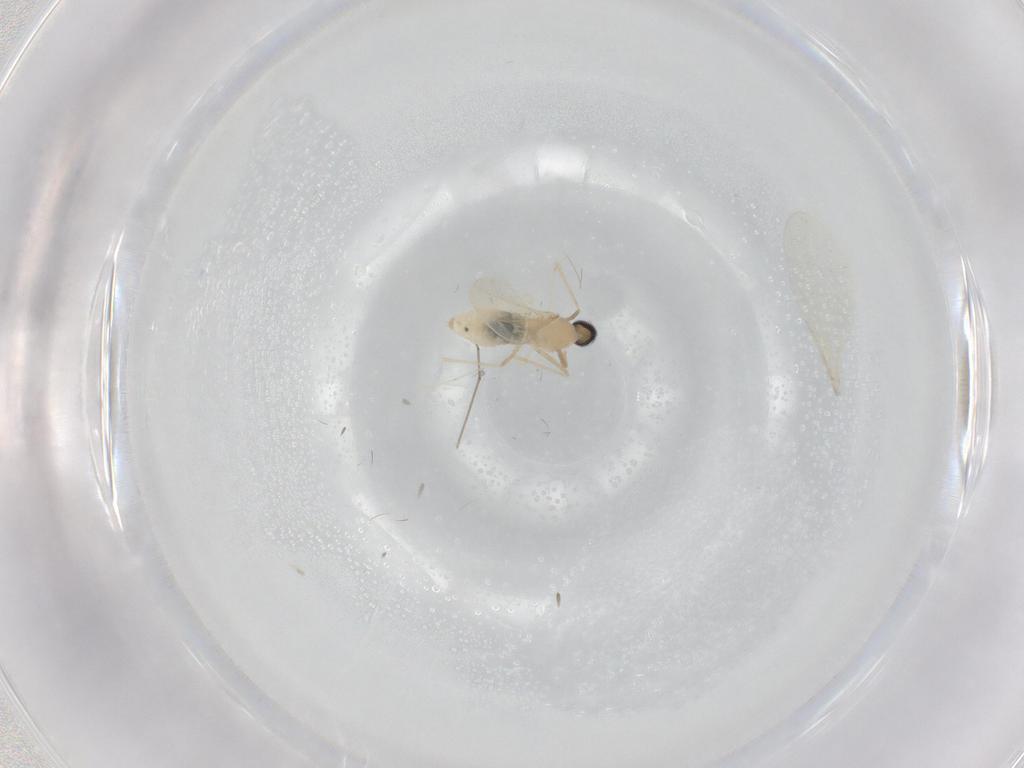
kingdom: Animalia
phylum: Arthropoda
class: Insecta
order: Diptera
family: Cecidomyiidae
